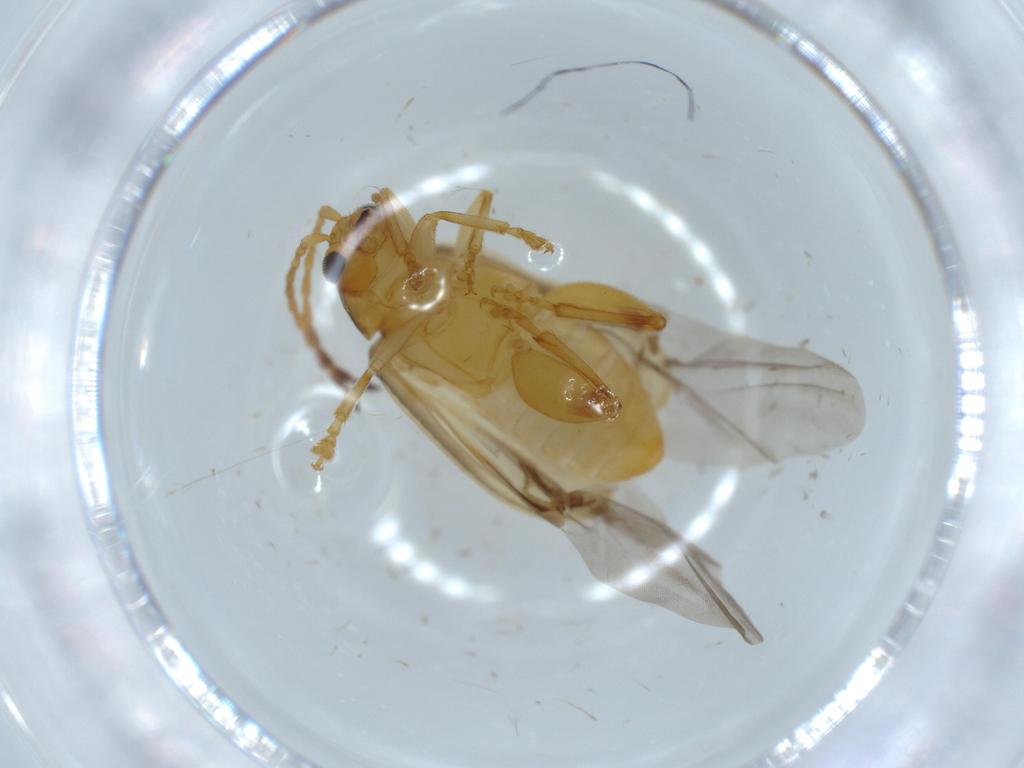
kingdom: Animalia
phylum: Arthropoda
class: Insecta
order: Coleoptera
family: Chrysomelidae
